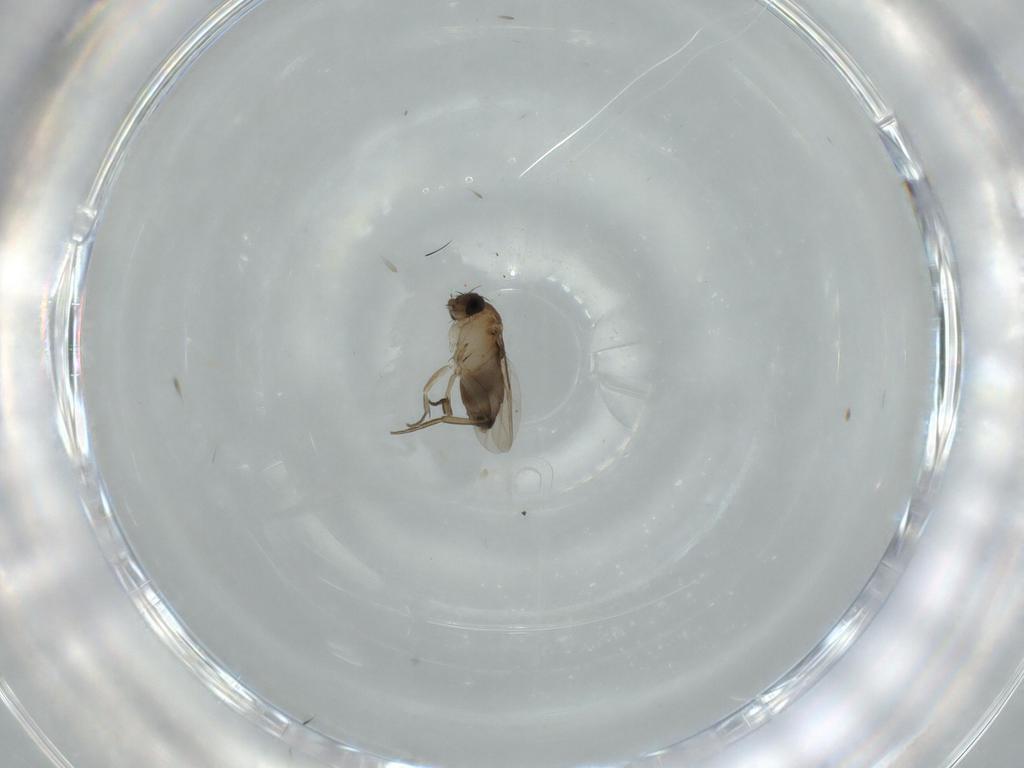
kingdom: Animalia
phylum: Arthropoda
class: Insecta
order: Diptera
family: Phoridae
